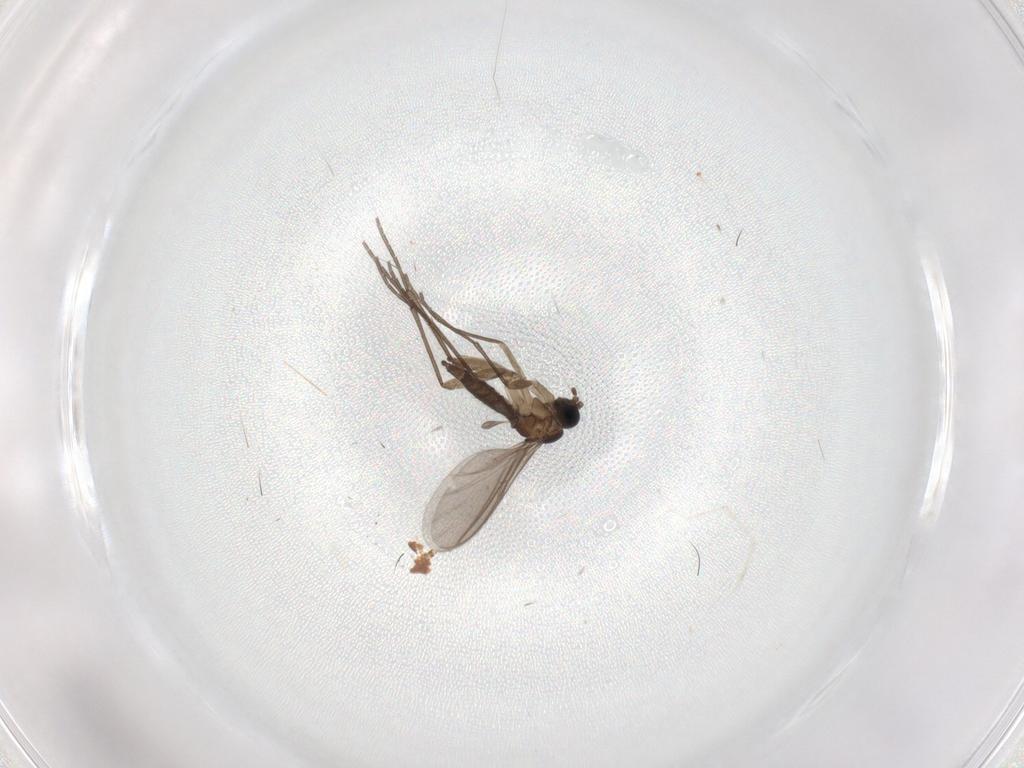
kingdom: Animalia
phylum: Arthropoda
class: Insecta
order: Diptera
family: Sciaridae
